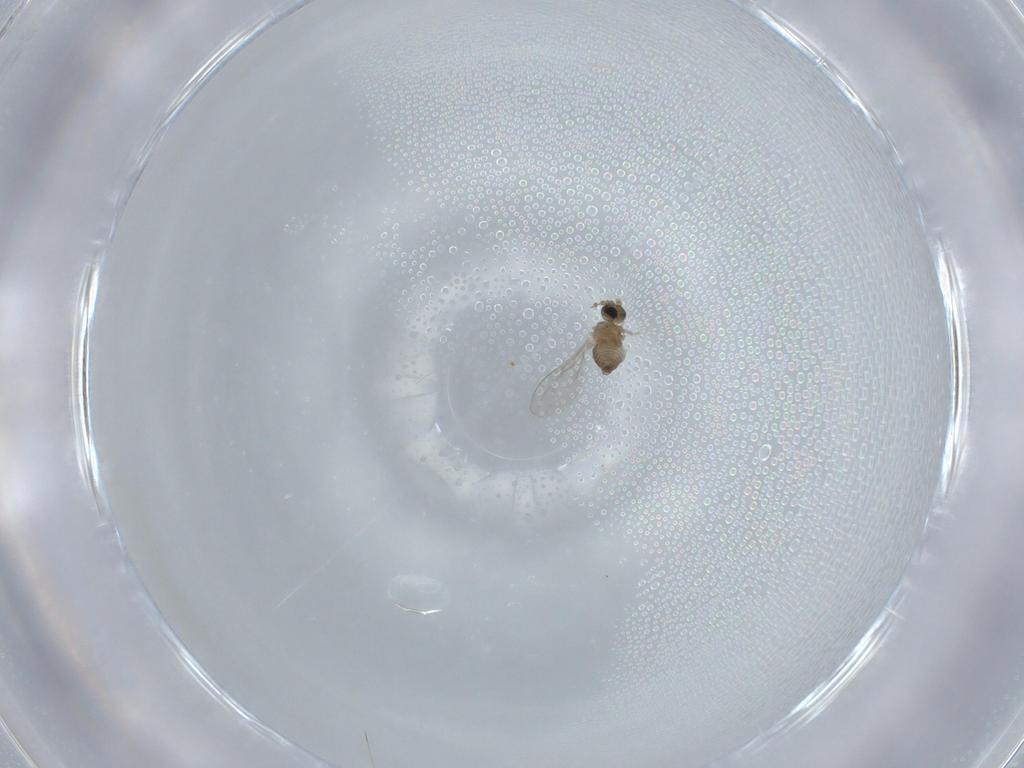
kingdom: Animalia
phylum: Arthropoda
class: Insecta
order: Diptera
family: Cecidomyiidae
